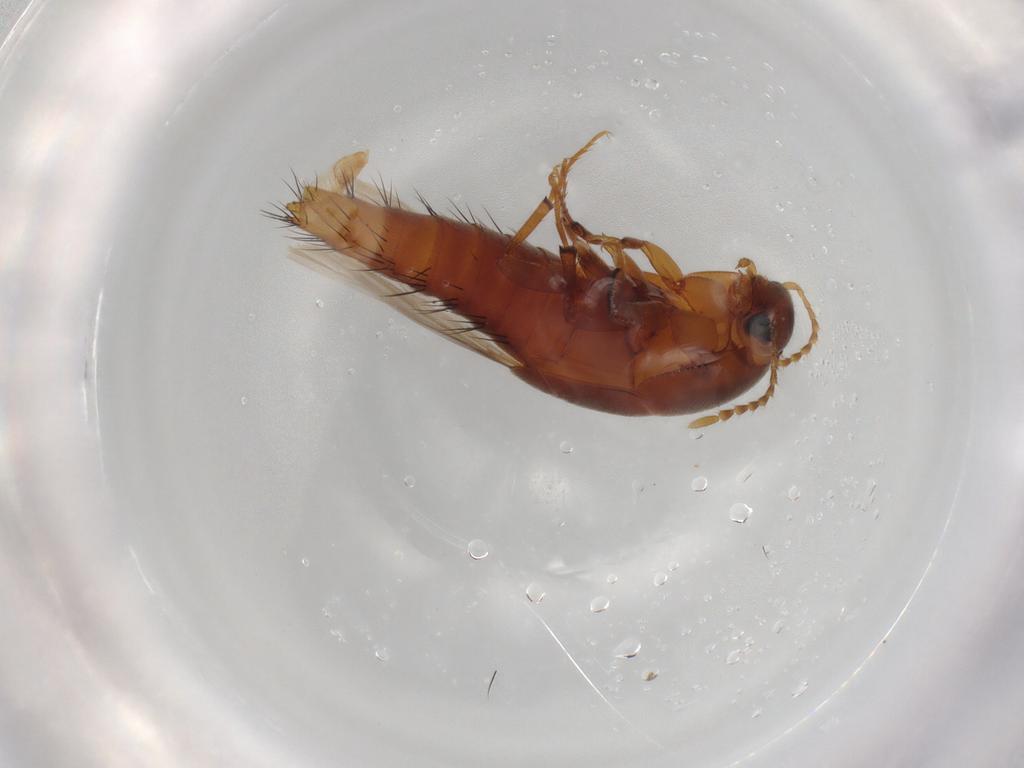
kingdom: Animalia
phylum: Arthropoda
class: Insecta
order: Coleoptera
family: Staphylinidae
